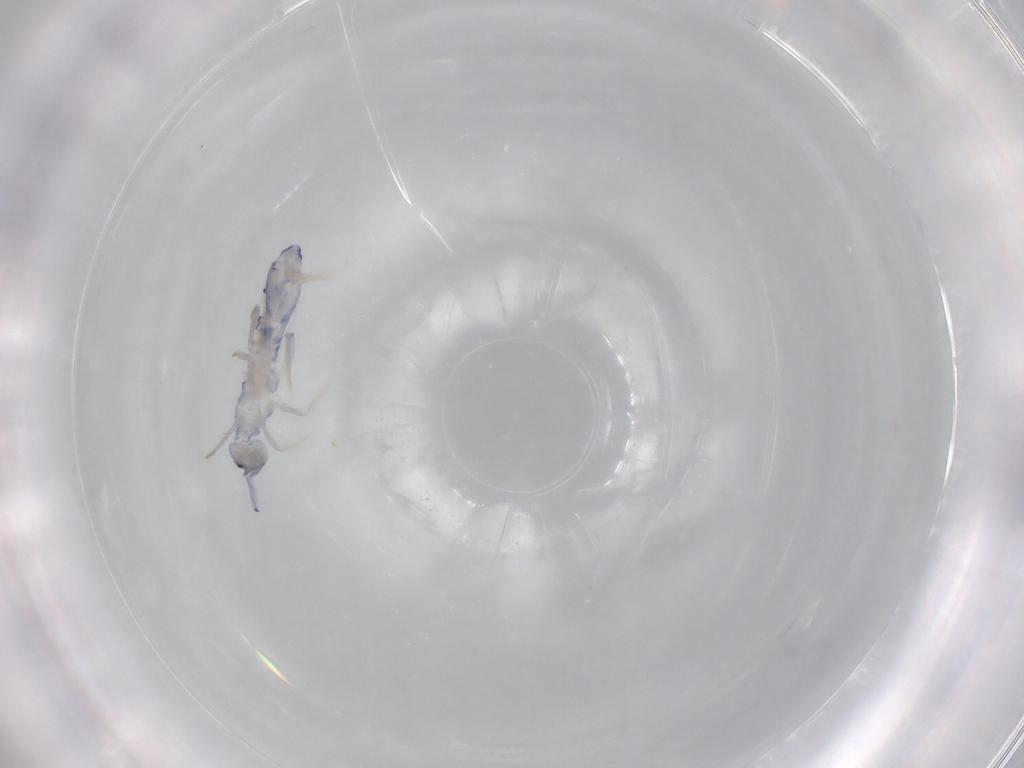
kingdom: Animalia
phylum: Arthropoda
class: Collembola
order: Entomobryomorpha
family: Entomobryidae
